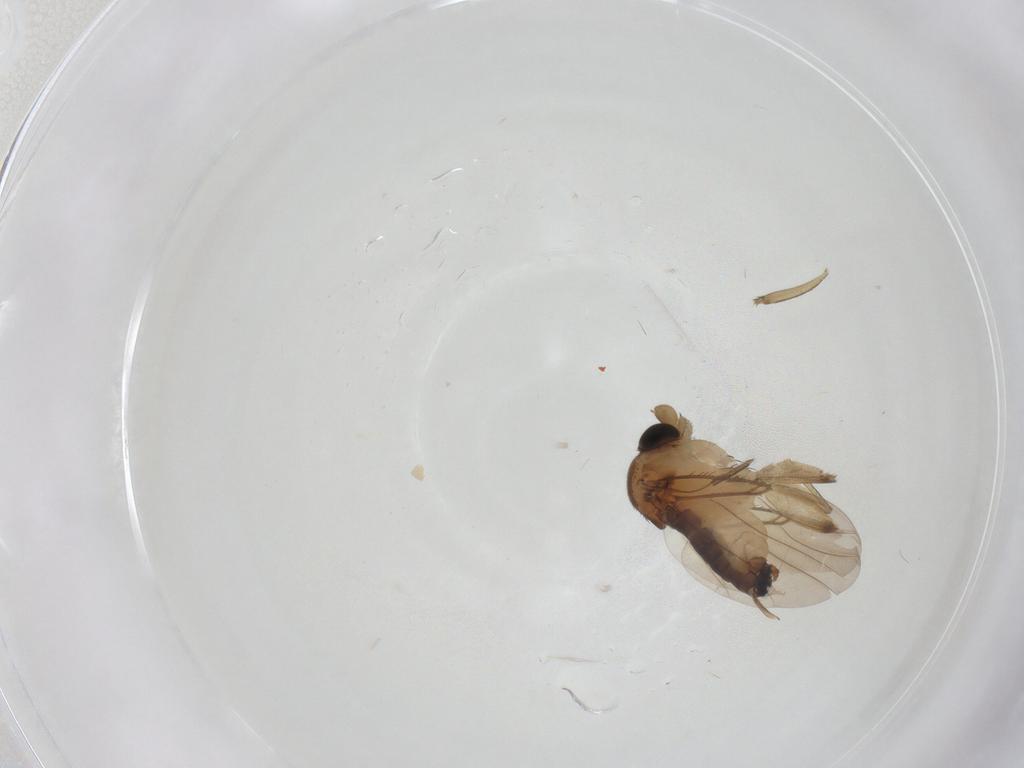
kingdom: Animalia
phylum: Arthropoda
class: Insecta
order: Diptera
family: Phoridae
